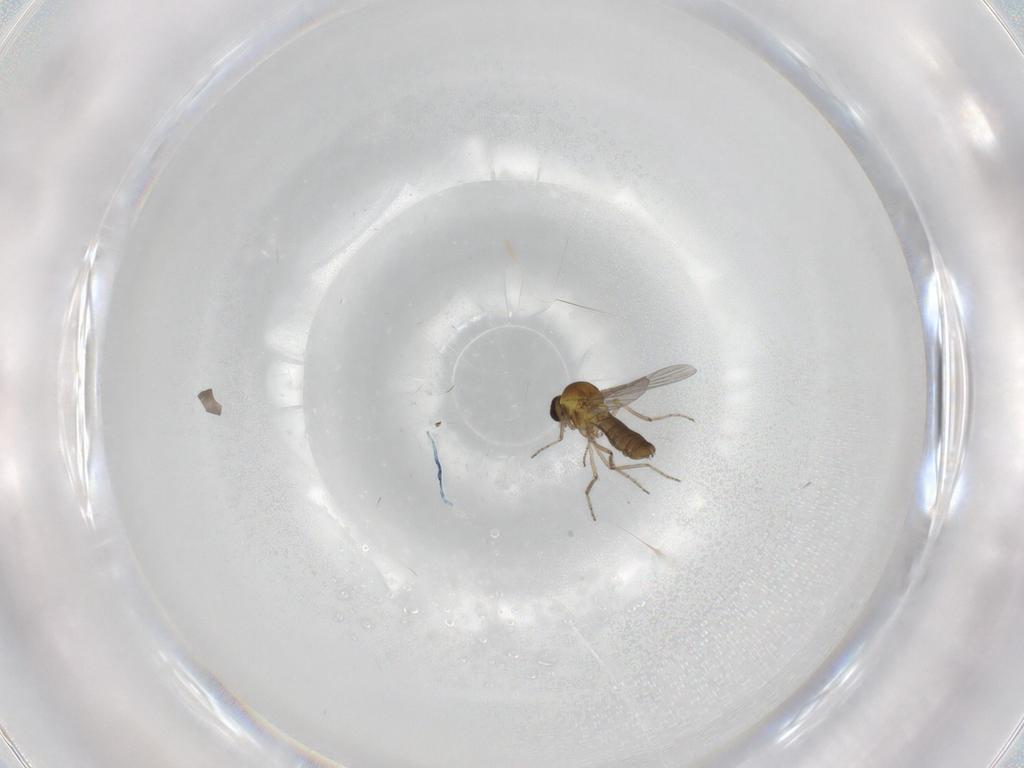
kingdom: Animalia
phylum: Arthropoda
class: Insecta
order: Diptera
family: Ceratopogonidae
